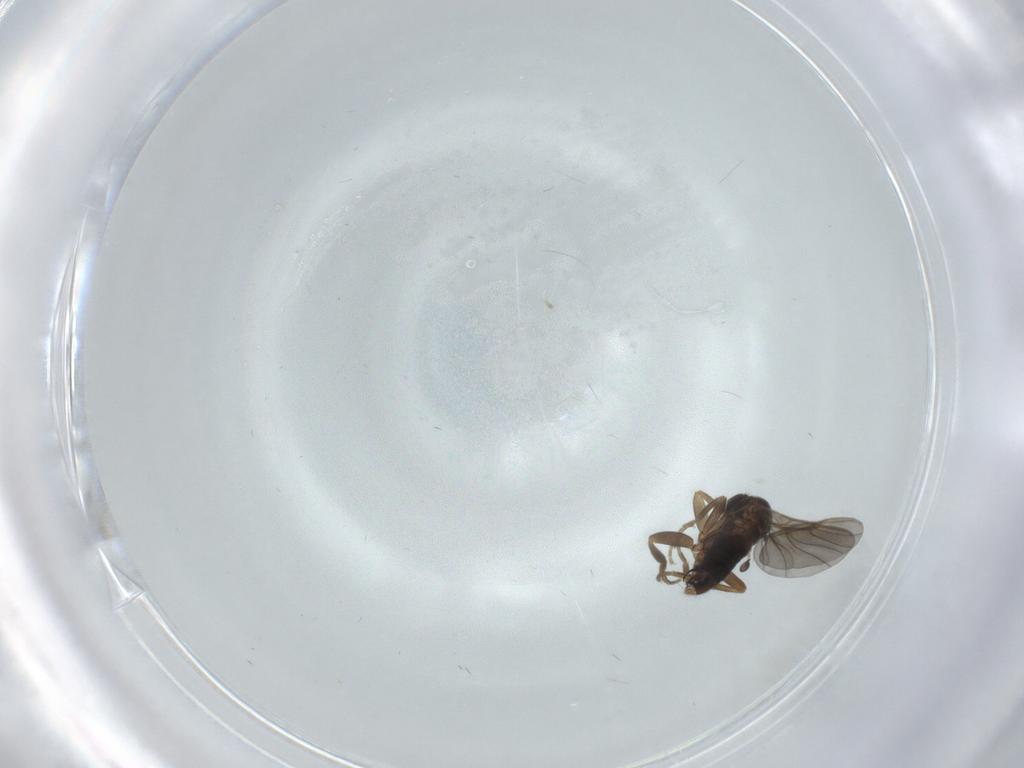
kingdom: Animalia
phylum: Arthropoda
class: Insecta
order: Diptera
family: Phoridae
